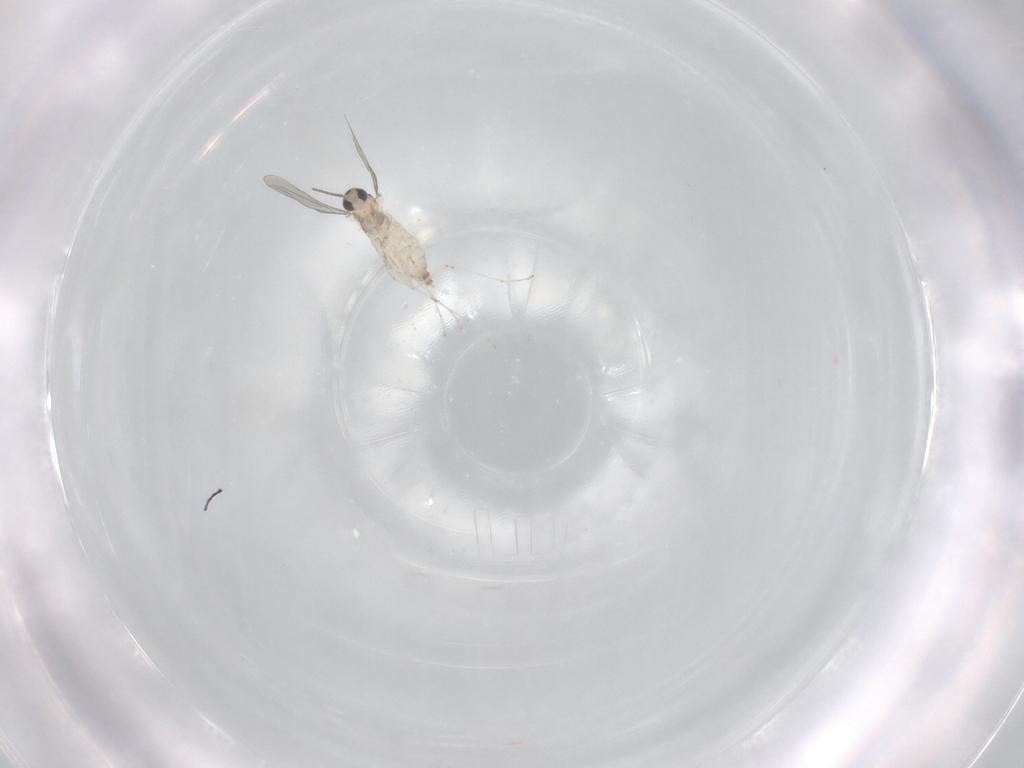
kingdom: Animalia
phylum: Arthropoda
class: Insecta
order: Diptera
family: Cecidomyiidae
